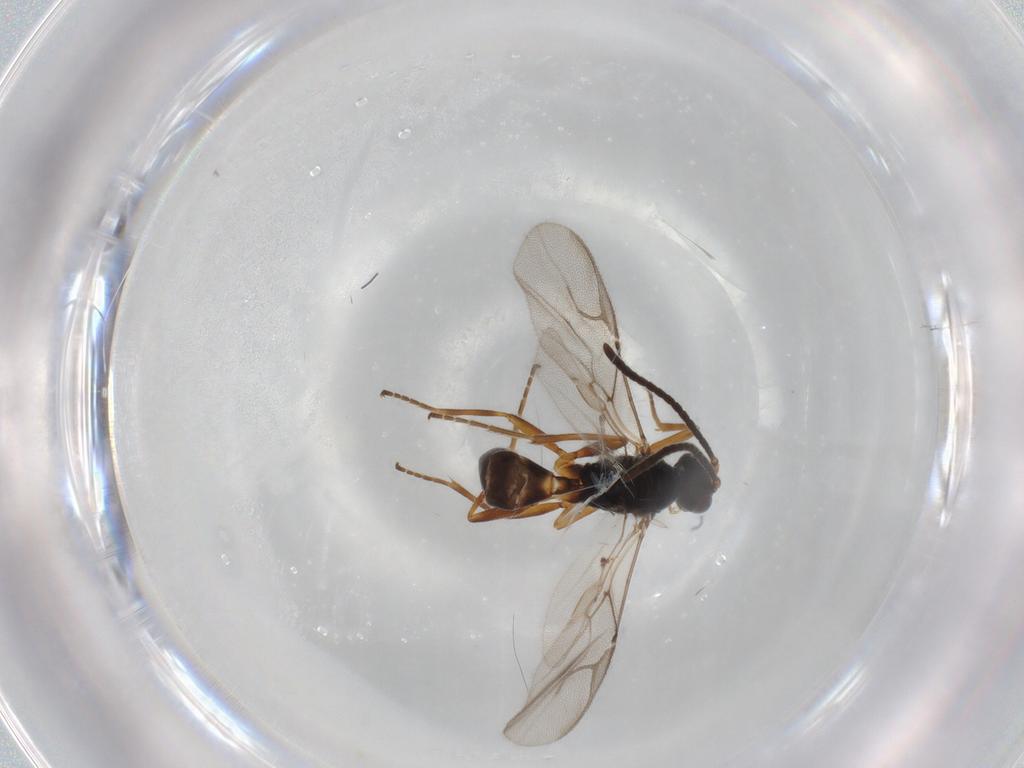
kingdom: Animalia
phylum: Arthropoda
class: Insecta
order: Hymenoptera
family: Braconidae
